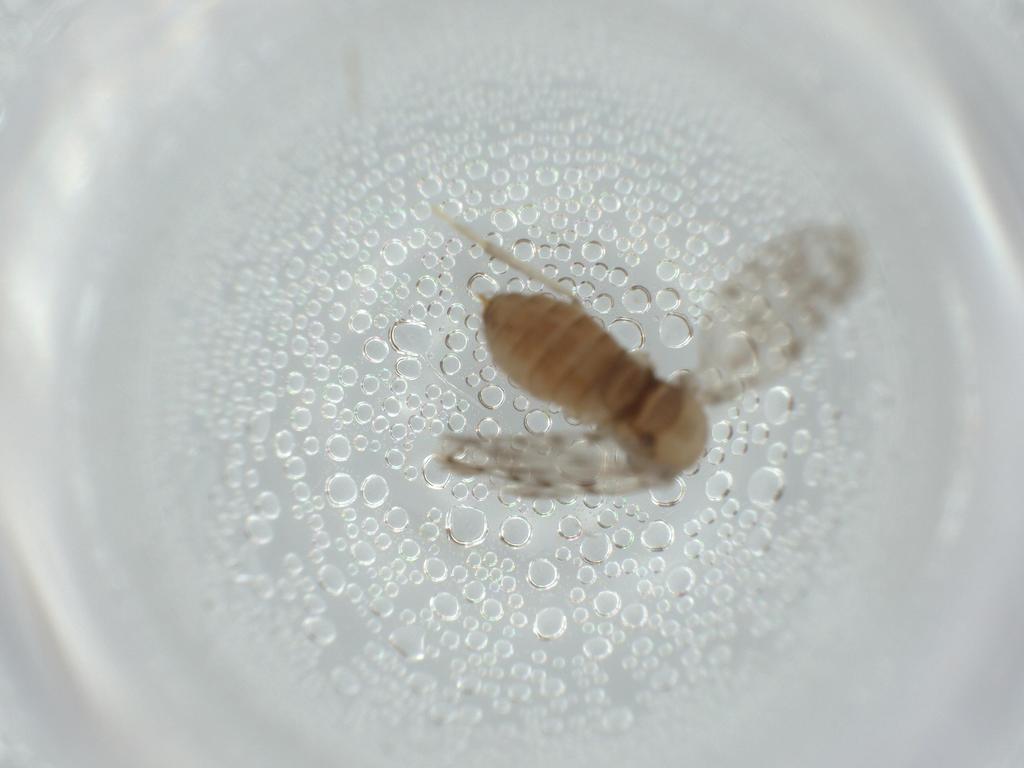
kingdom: Animalia
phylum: Arthropoda
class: Insecta
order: Diptera
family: Psychodidae
